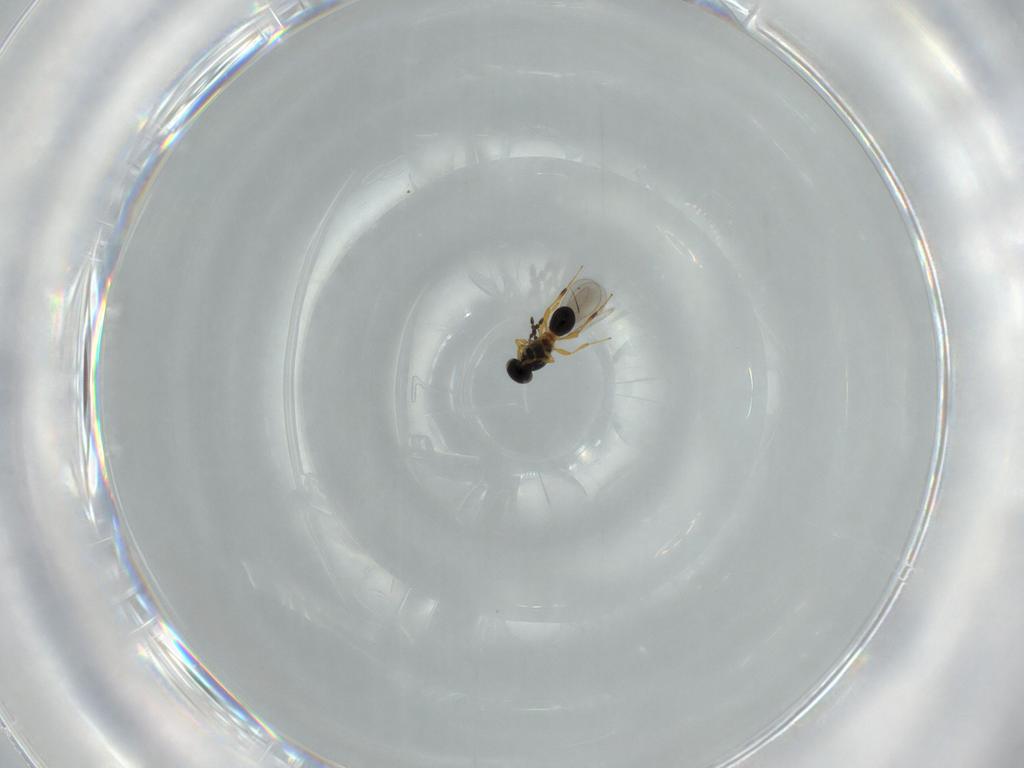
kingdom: Animalia
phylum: Arthropoda
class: Insecta
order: Hymenoptera
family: Platygastridae
